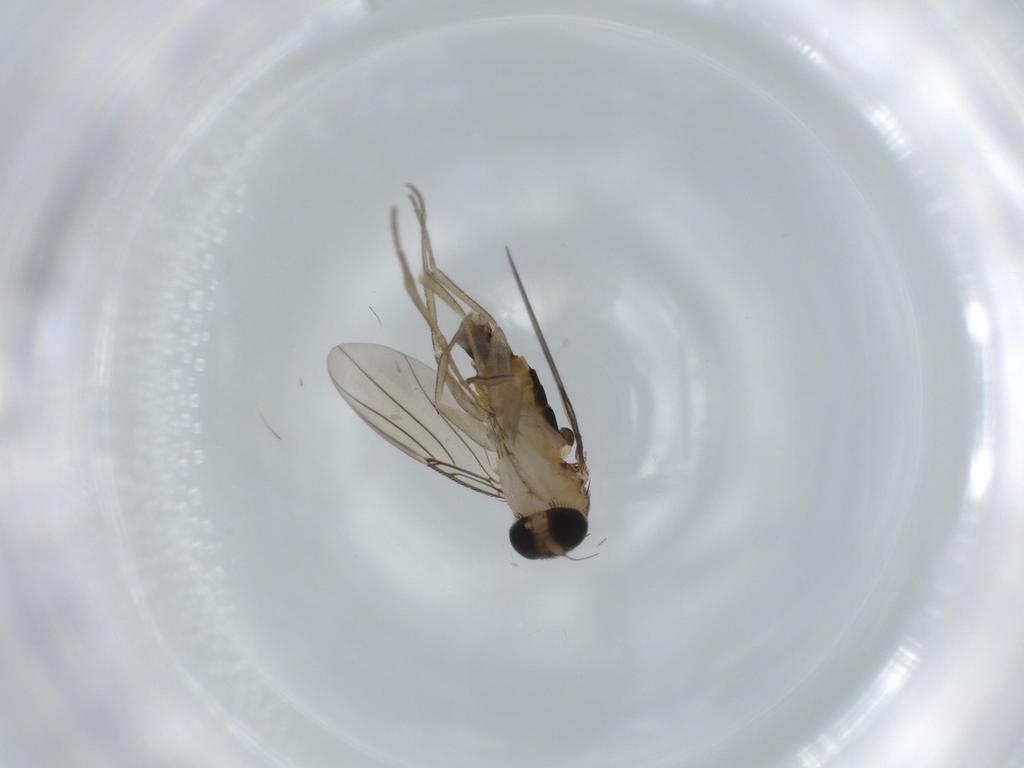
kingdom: Animalia
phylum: Arthropoda
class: Insecta
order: Diptera
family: Phoridae
